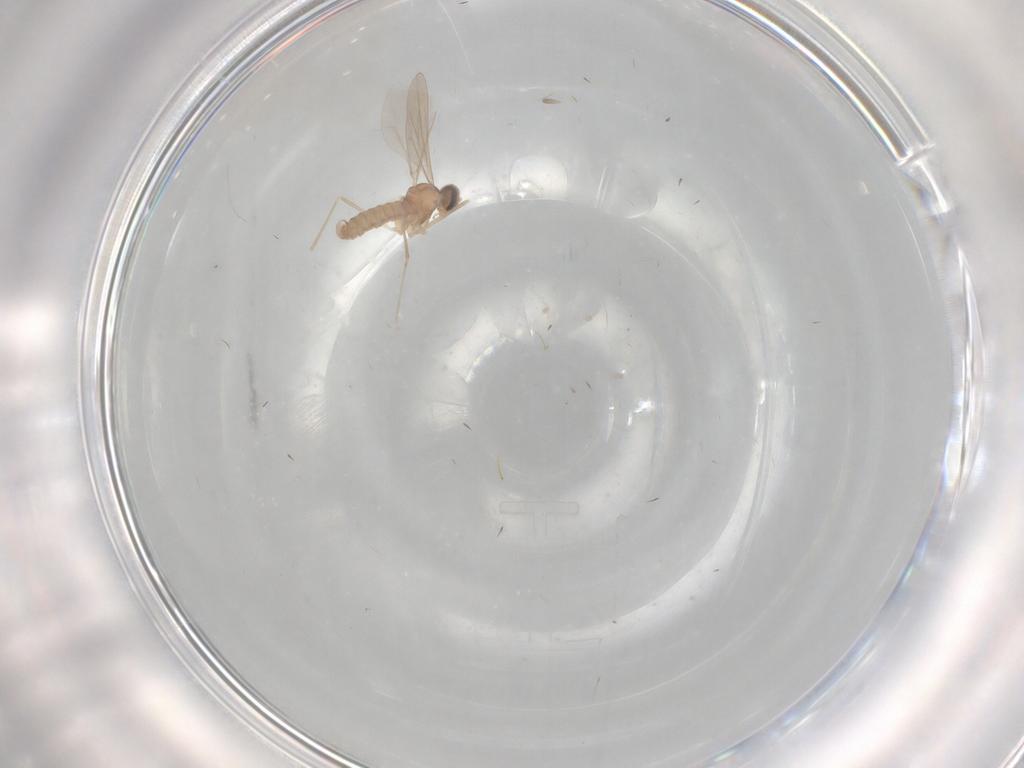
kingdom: Animalia
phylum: Arthropoda
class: Insecta
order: Diptera
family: Cecidomyiidae
